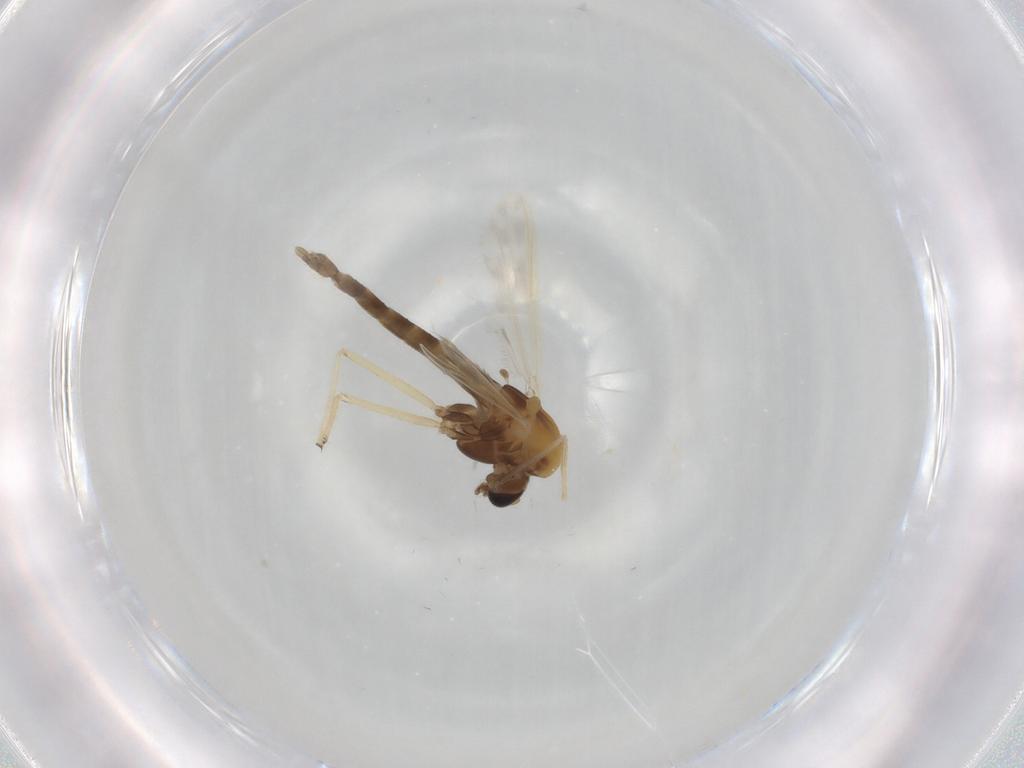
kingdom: Animalia
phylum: Arthropoda
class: Insecta
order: Diptera
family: Chironomidae
